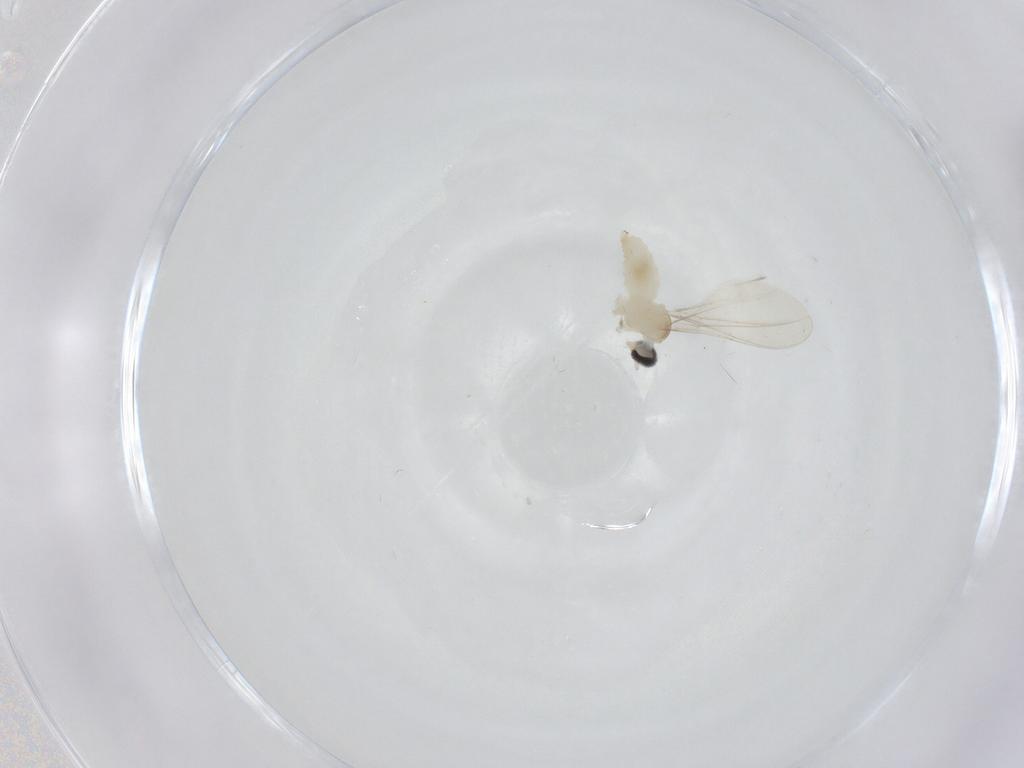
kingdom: Animalia
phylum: Arthropoda
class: Insecta
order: Diptera
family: Cecidomyiidae
